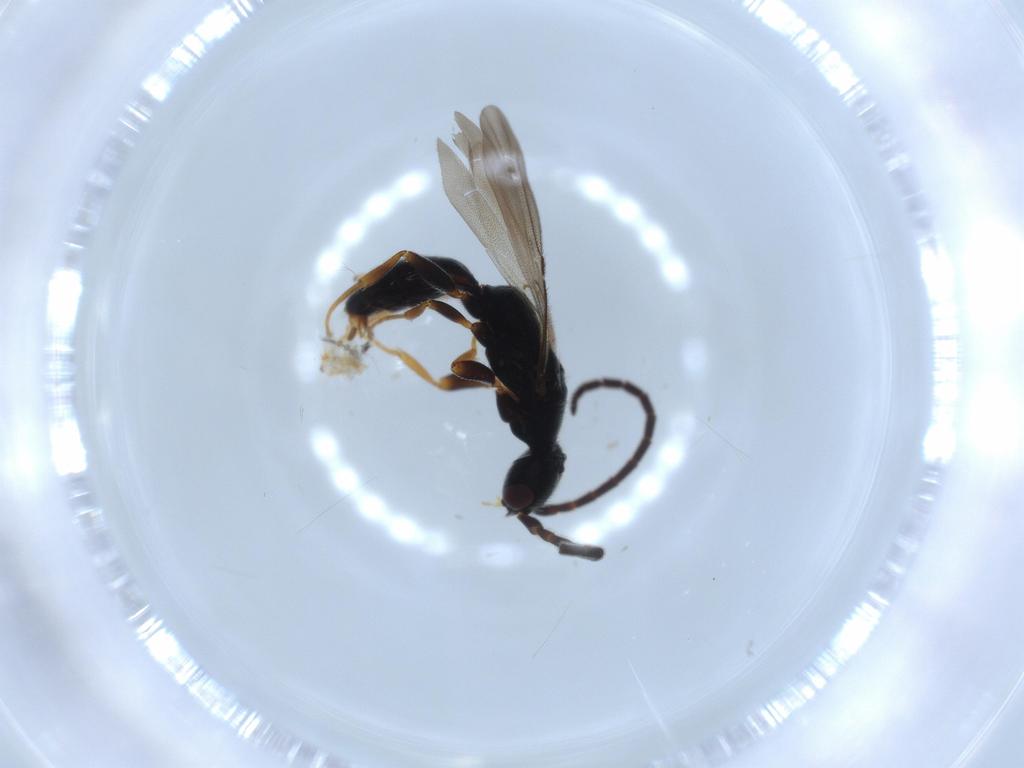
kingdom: Animalia
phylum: Arthropoda
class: Insecta
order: Hymenoptera
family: Bethylidae
